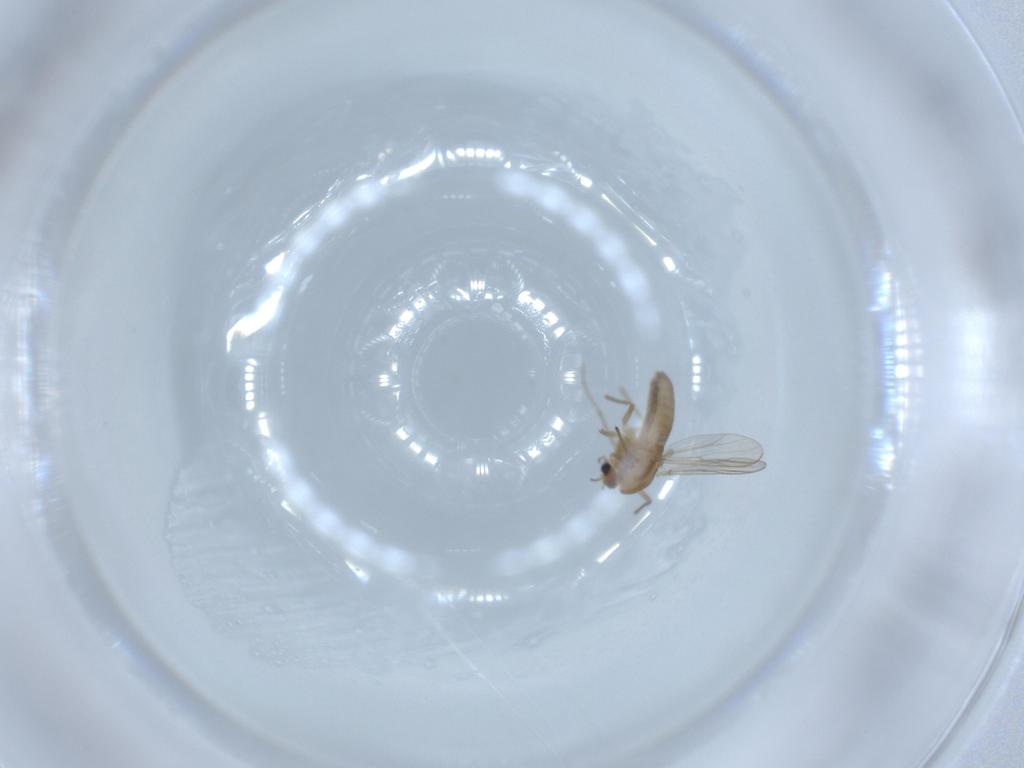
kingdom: Animalia
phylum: Arthropoda
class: Insecta
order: Diptera
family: Chironomidae
